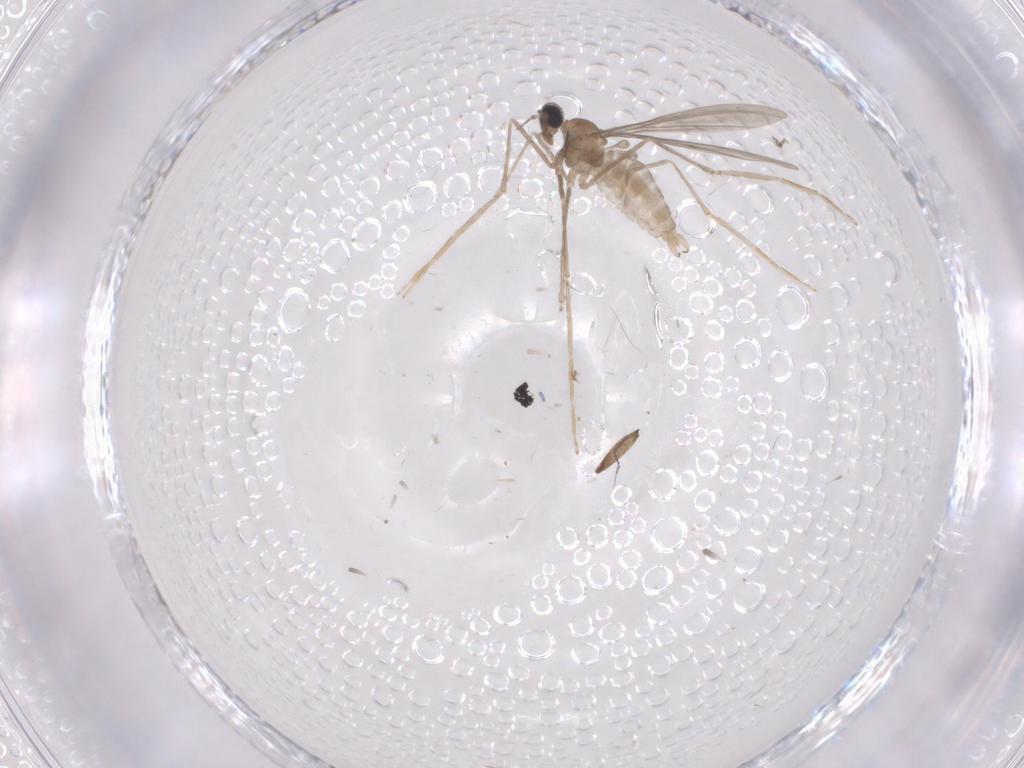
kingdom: Animalia
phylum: Arthropoda
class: Insecta
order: Diptera
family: Cecidomyiidae
